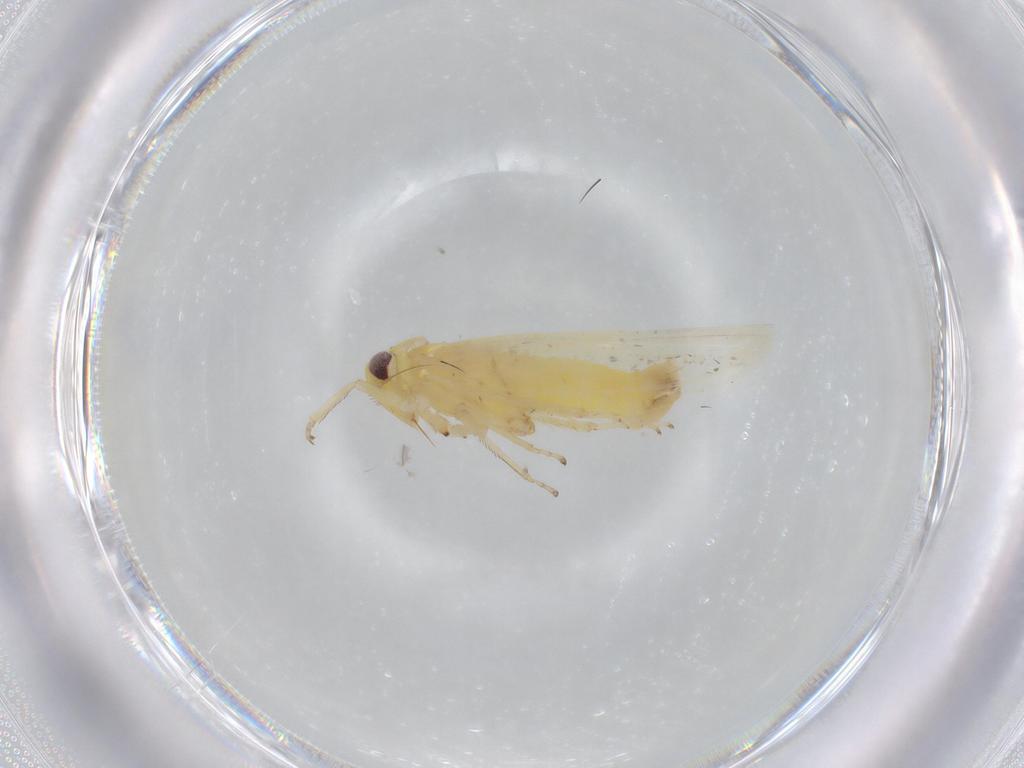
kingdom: Animalia
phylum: Arthropoda
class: Insecta
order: Hemiptera
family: Cicadellidae
